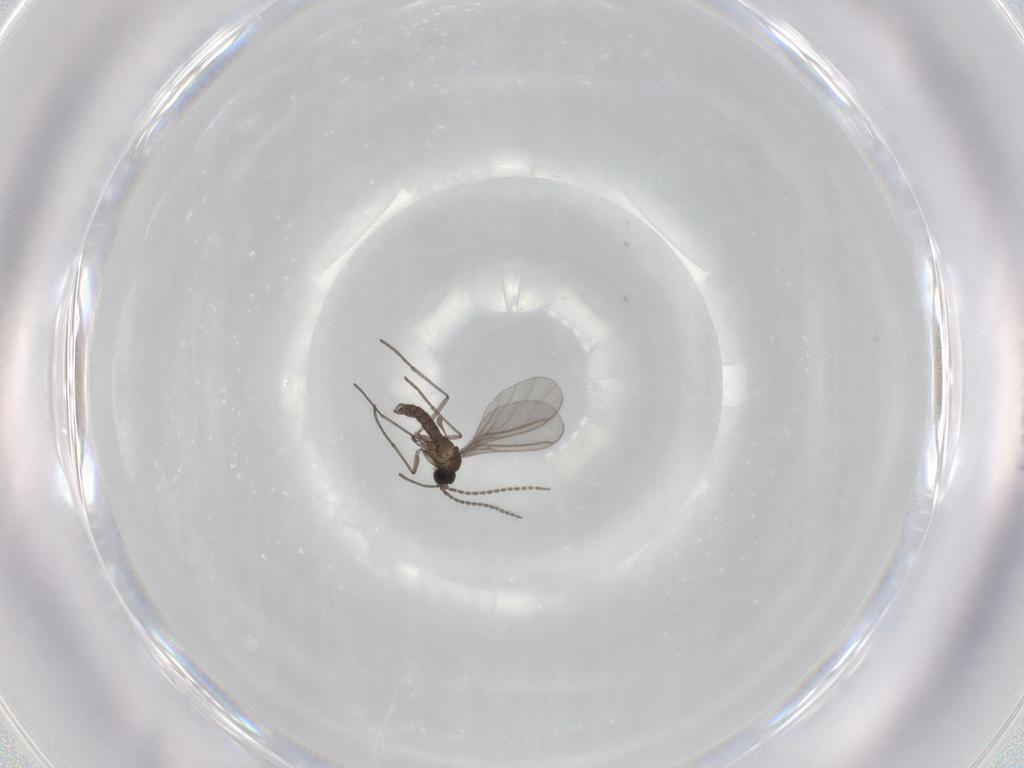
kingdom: Animalia
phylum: Arthropoda
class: Insecta
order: Diptera
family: Sciaridae
